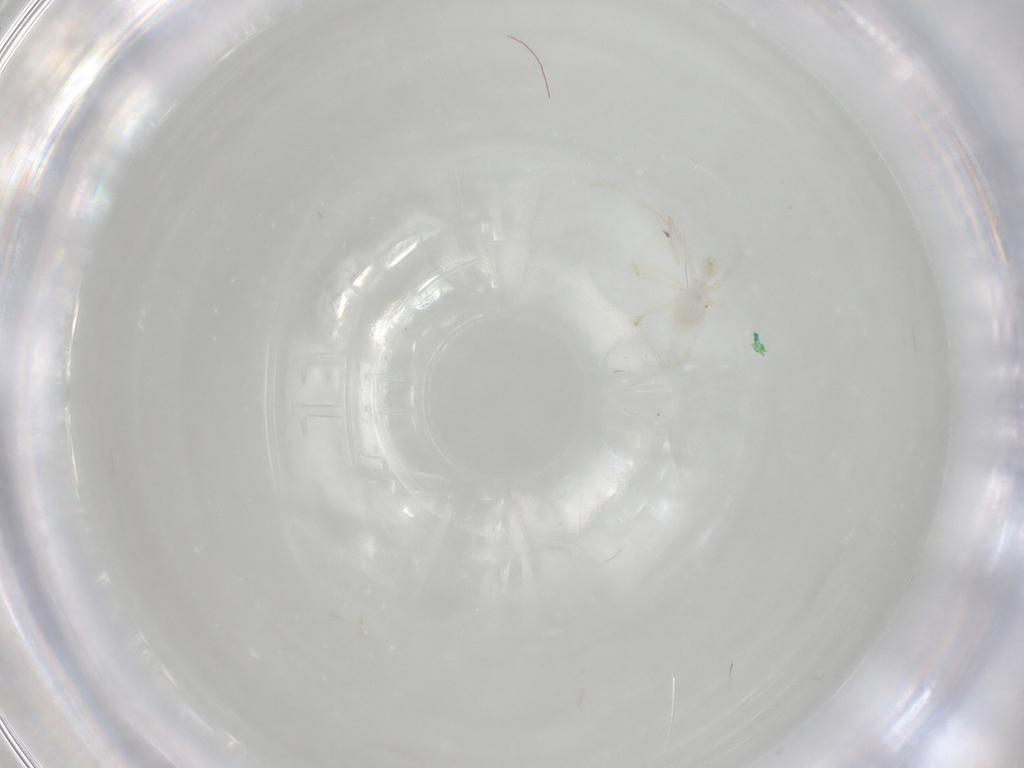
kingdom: Animalia
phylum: Arthropoda
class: Arachnida
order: Trombidiformes
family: Erythraeidae
